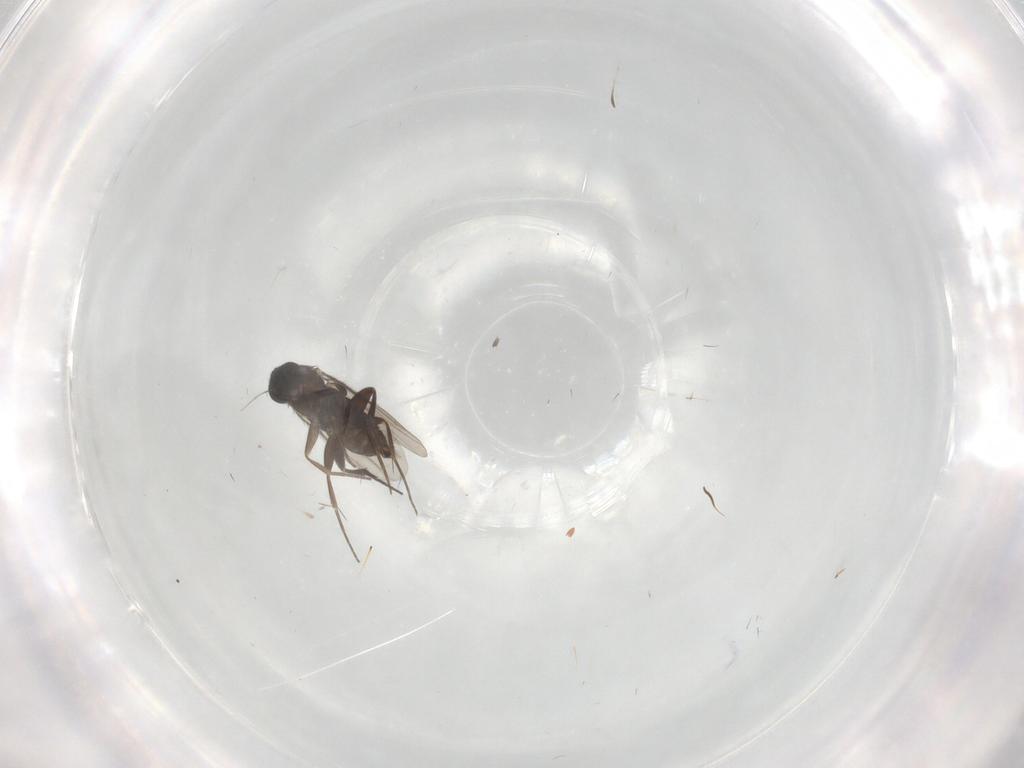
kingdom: Animalia
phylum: Arthropoda
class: Insecta
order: Diptera
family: Phoridae
